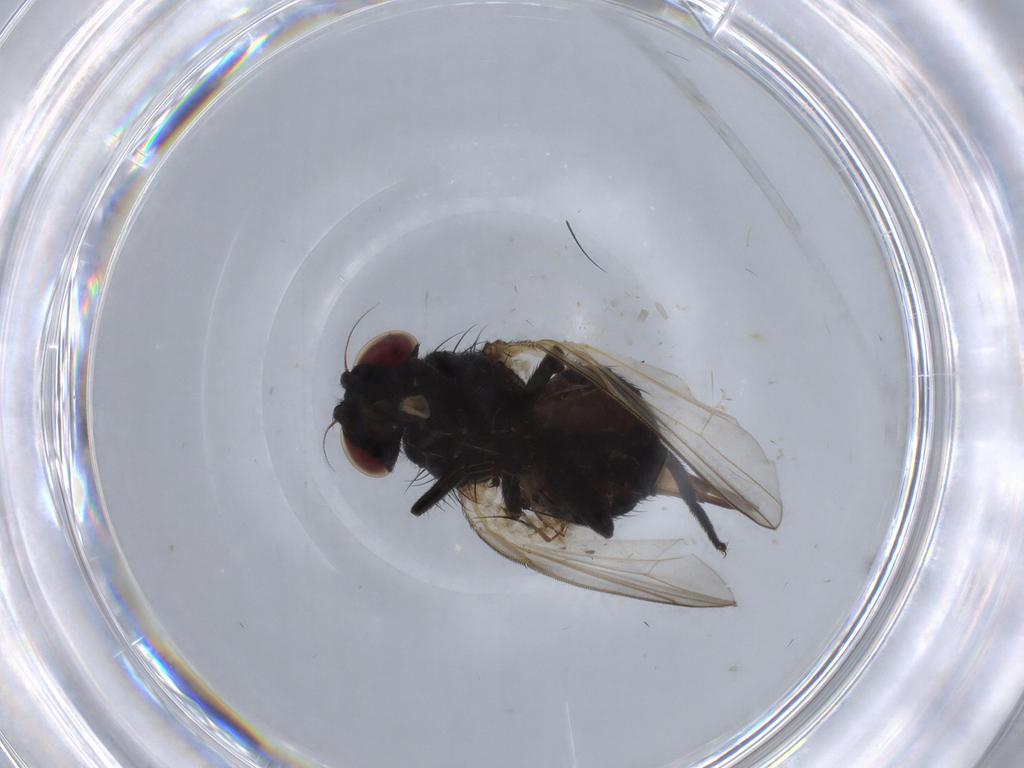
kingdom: Animalia
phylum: Arthropoda
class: Insecta
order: Diptera
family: Lonchaeidae
